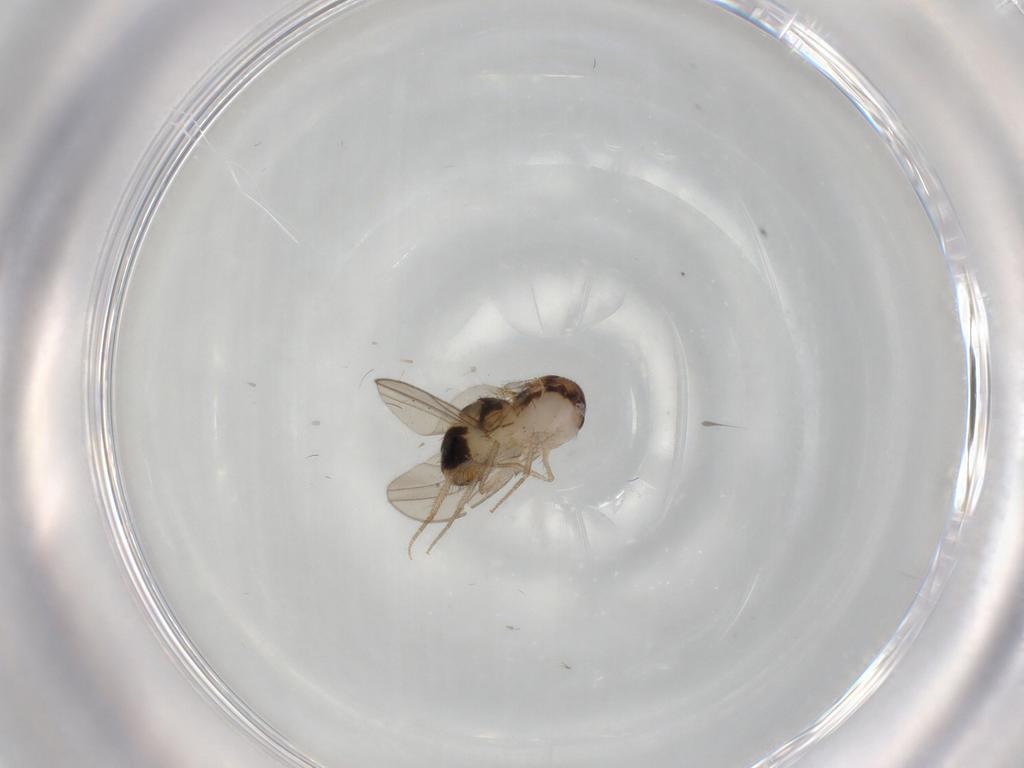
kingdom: Animalia
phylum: Arthropoda
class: Insecta
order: Diptera
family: Drosophilidae
